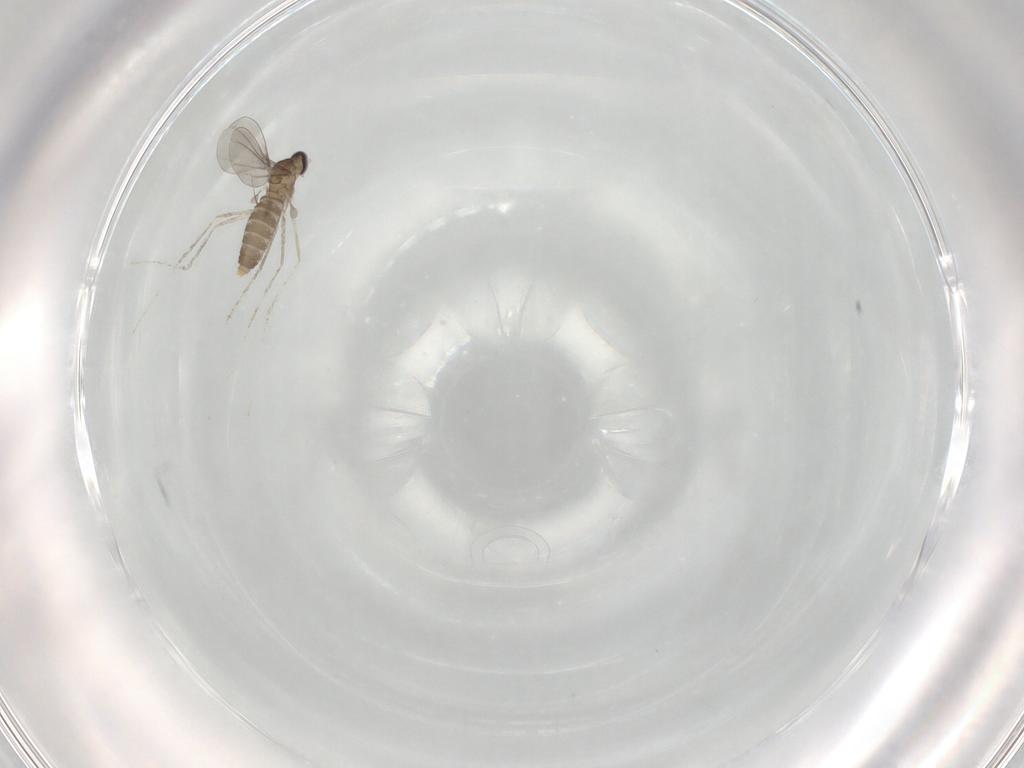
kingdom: Animalia
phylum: Arthropoda
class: Insecta
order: Diptera
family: Cecidomyiidae
